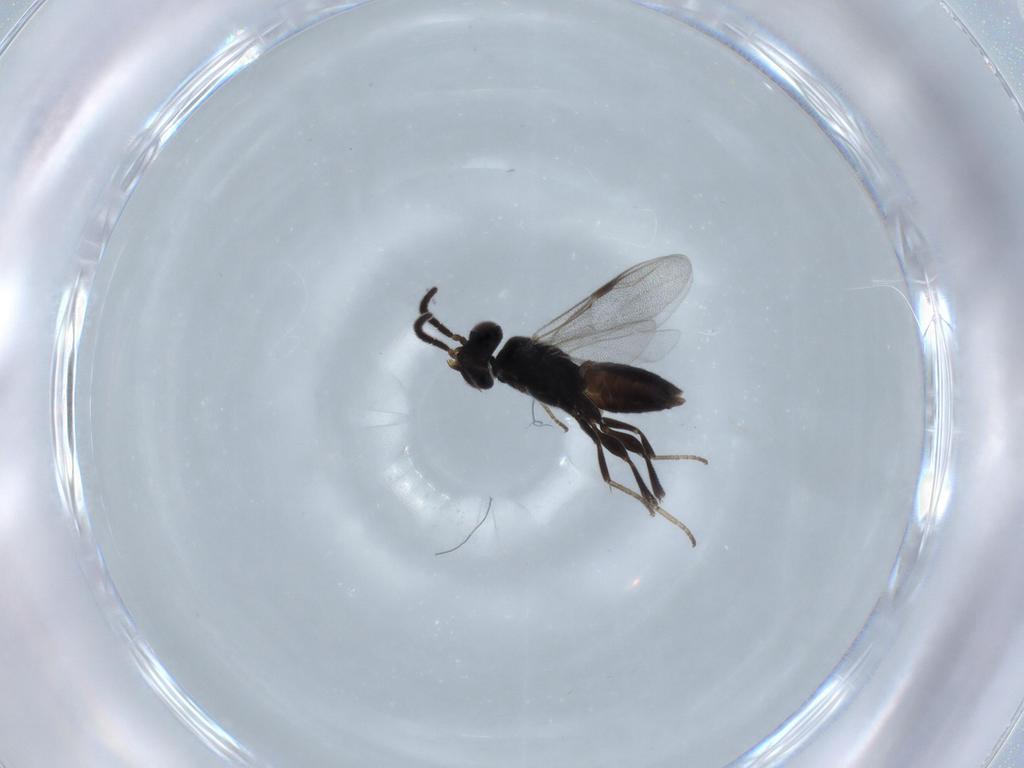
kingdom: Animalia
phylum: Arthropoda
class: Insecta
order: Hymenoptera
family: Dryinidae
